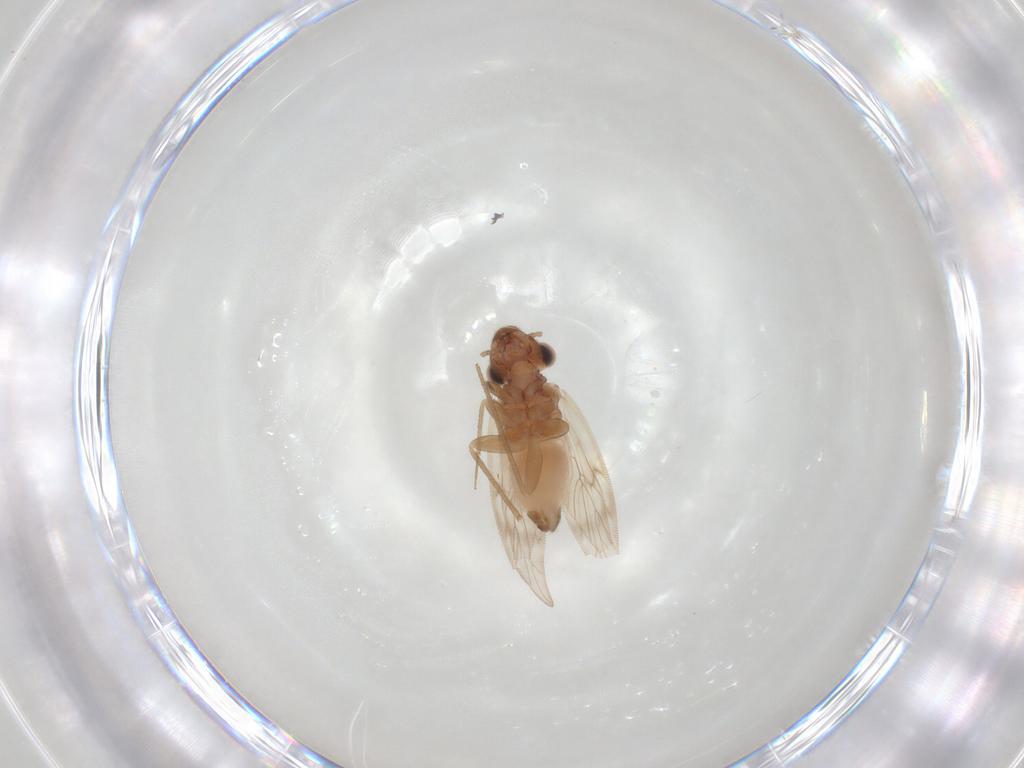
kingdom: Animalia
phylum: Arthropoda
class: Insecta
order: Psocodea
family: Lepidopsocidae
